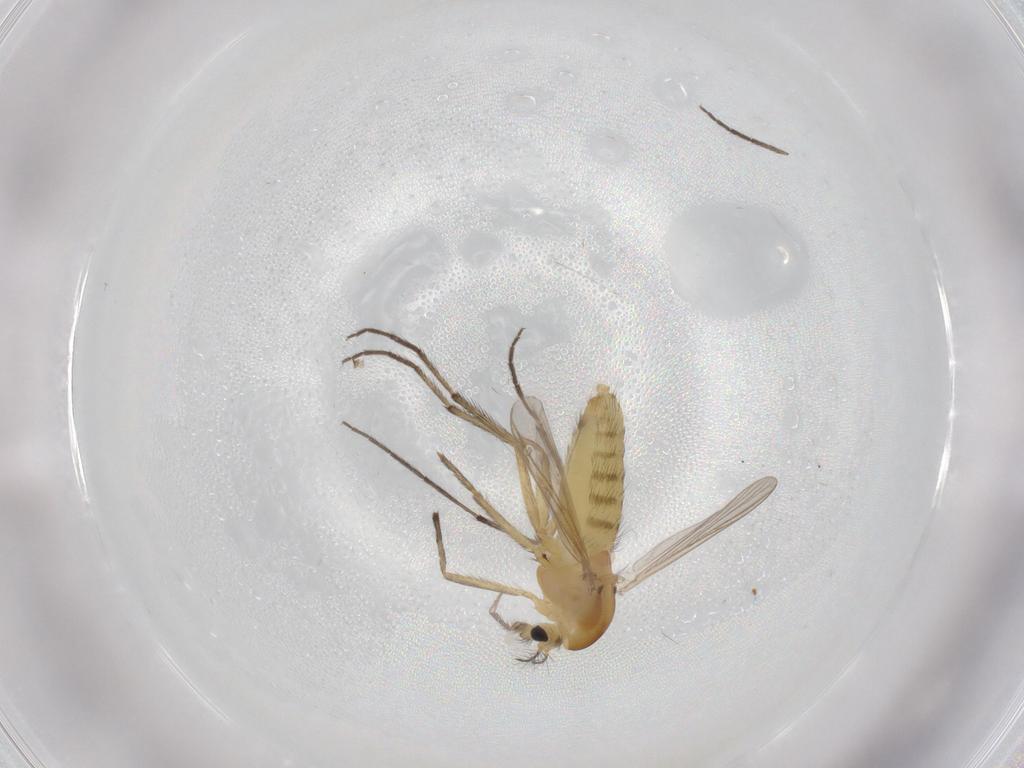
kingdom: Animalia
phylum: Arthropoda
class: Insecta
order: Diptera
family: Chironomidae
